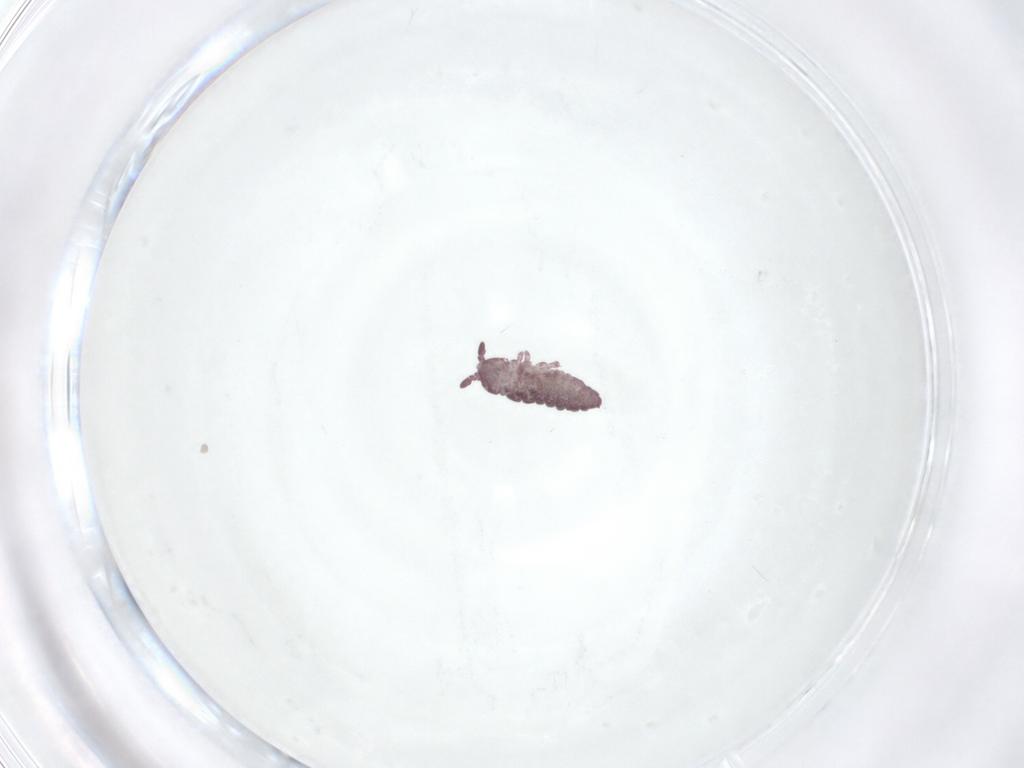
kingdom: Animalia
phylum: Arthropoda
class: Collembola
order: Poduromorpha
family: Hypogastruridae
